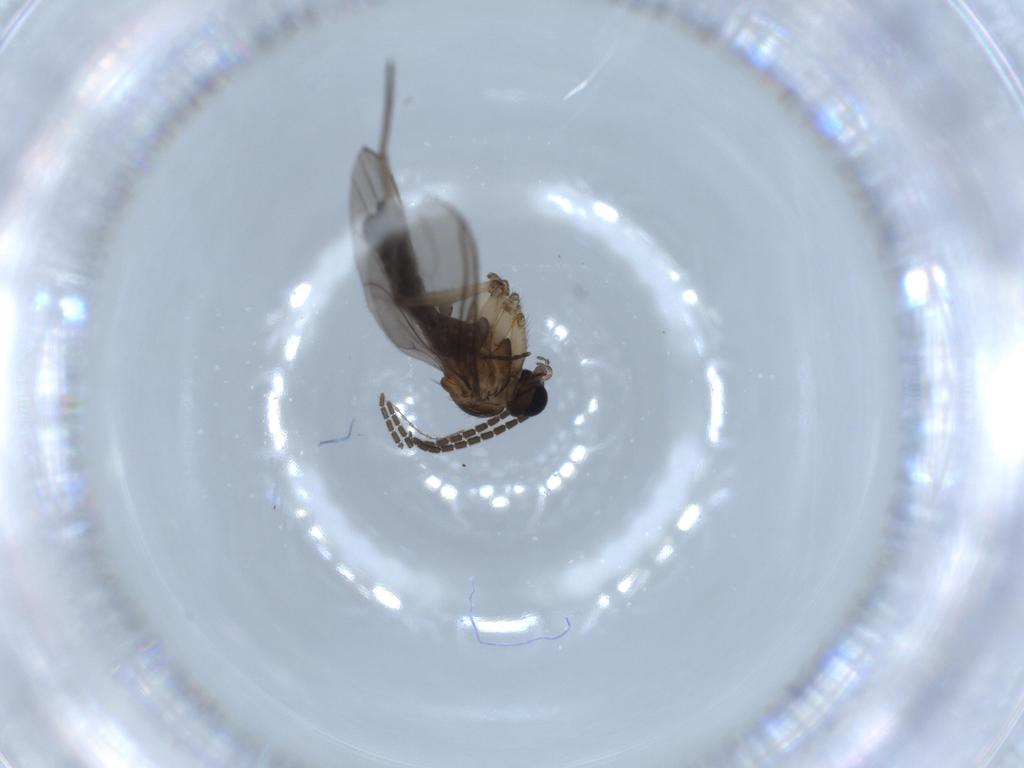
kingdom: Animalia
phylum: Arthropoda
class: Insecta
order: Diptera
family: Sciaridae
